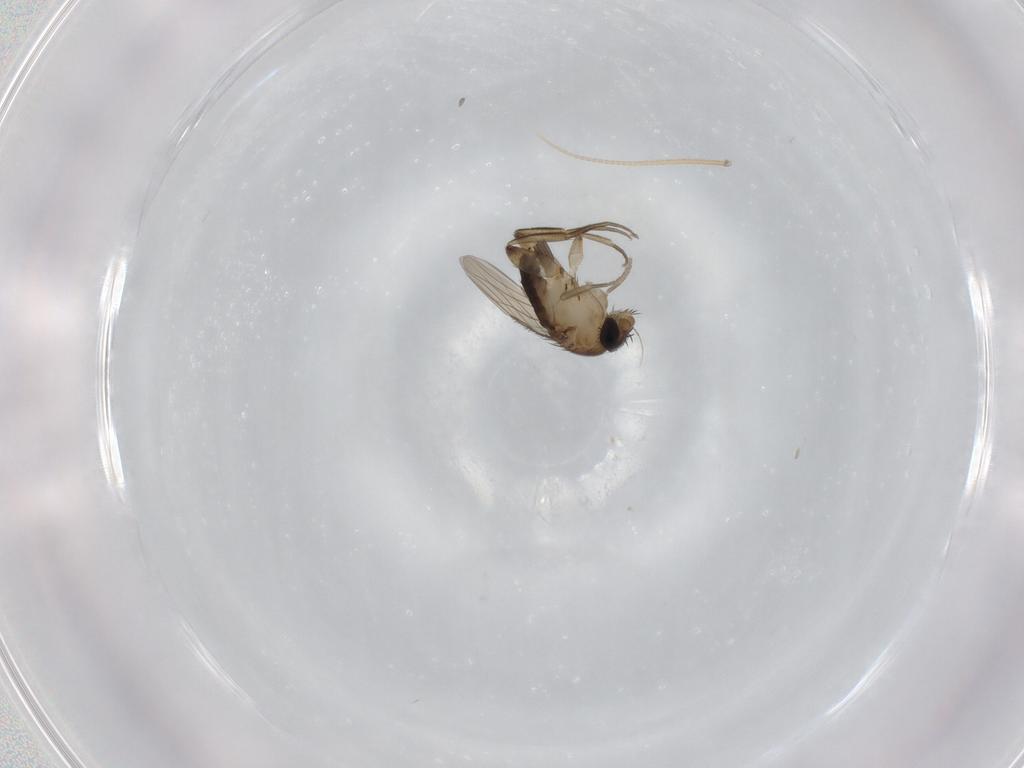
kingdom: Animalia
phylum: Arthropoda
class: Insecta
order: Diptera
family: Phoridae
